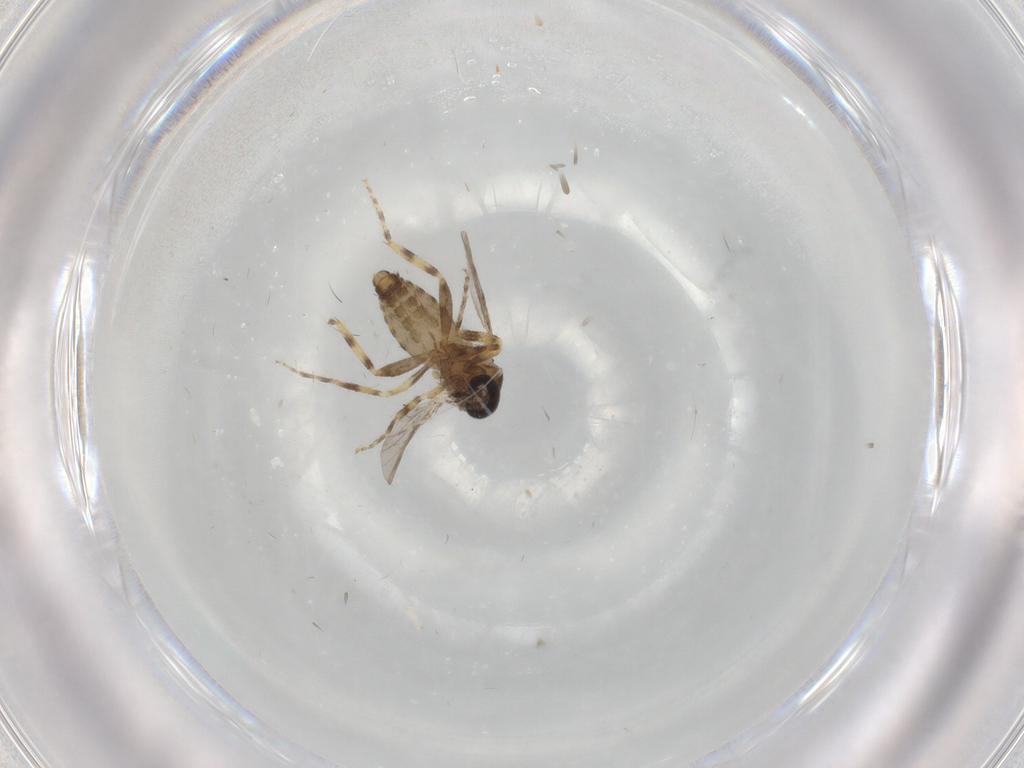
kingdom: Animalia
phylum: Arthropoda
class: Insecta
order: Diptera
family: Ceratopogonidae
